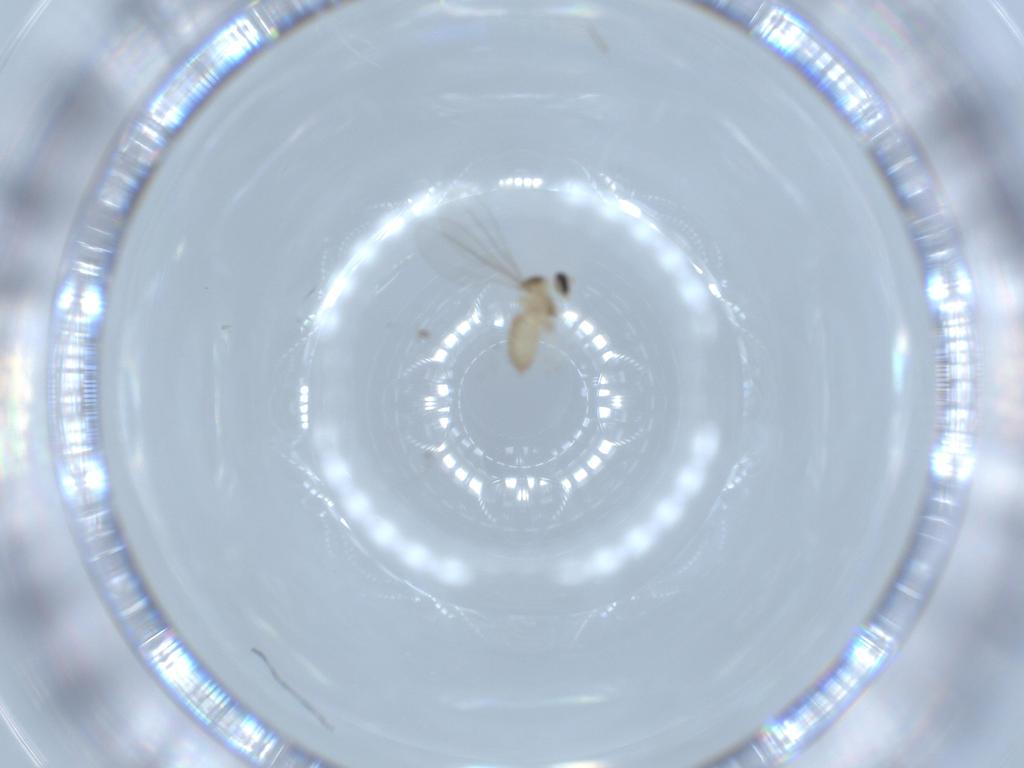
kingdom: Animalia
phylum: Arthropoda
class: Insecta
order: Diptera
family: Cecidomyiidae
